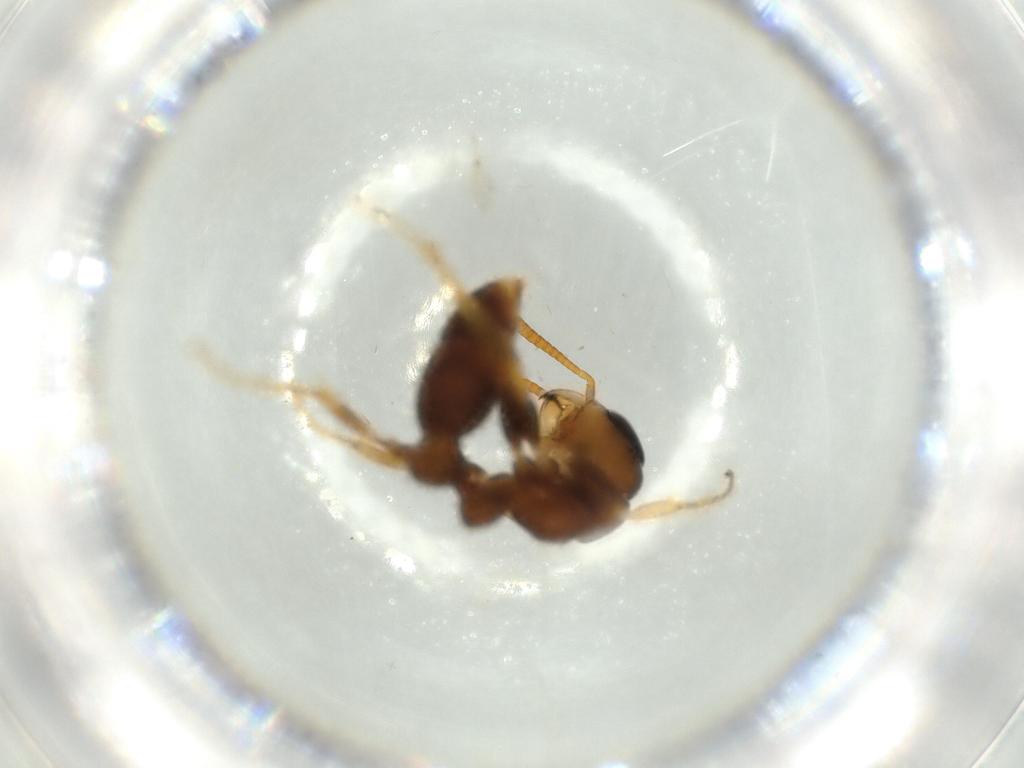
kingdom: Animalia
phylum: Arthropoda
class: Insecta
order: Hymenoptera
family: Formicidae
